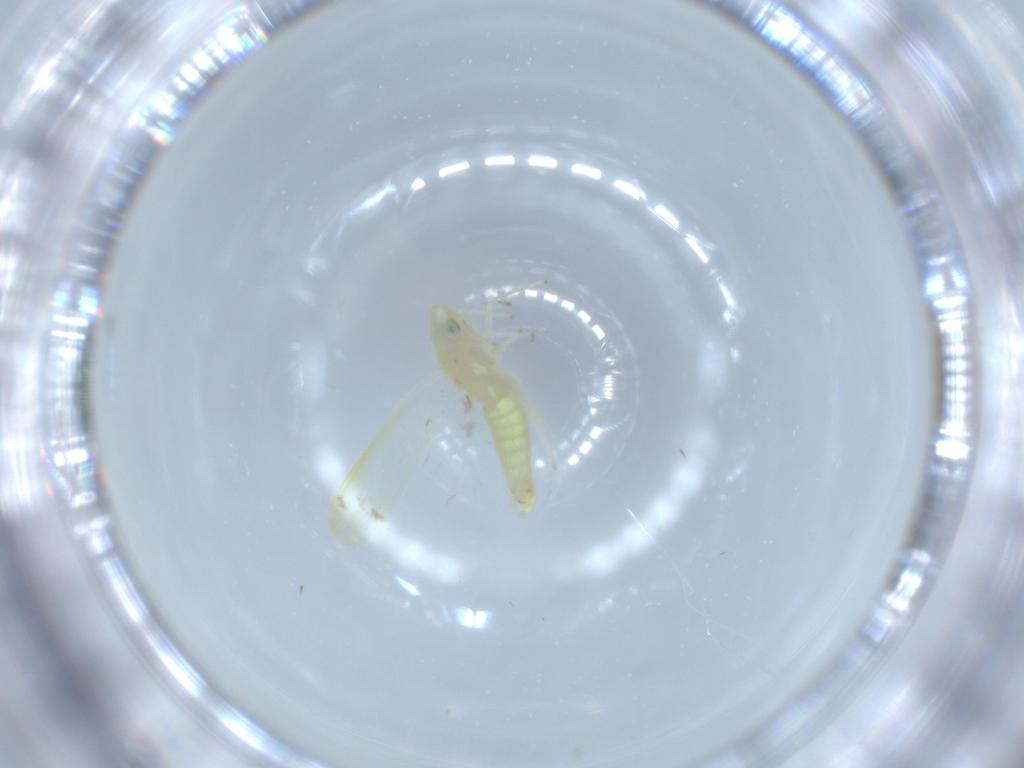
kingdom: Animalia
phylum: Arthropoda
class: Insecta
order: Hemiptera
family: Cicadellidae
